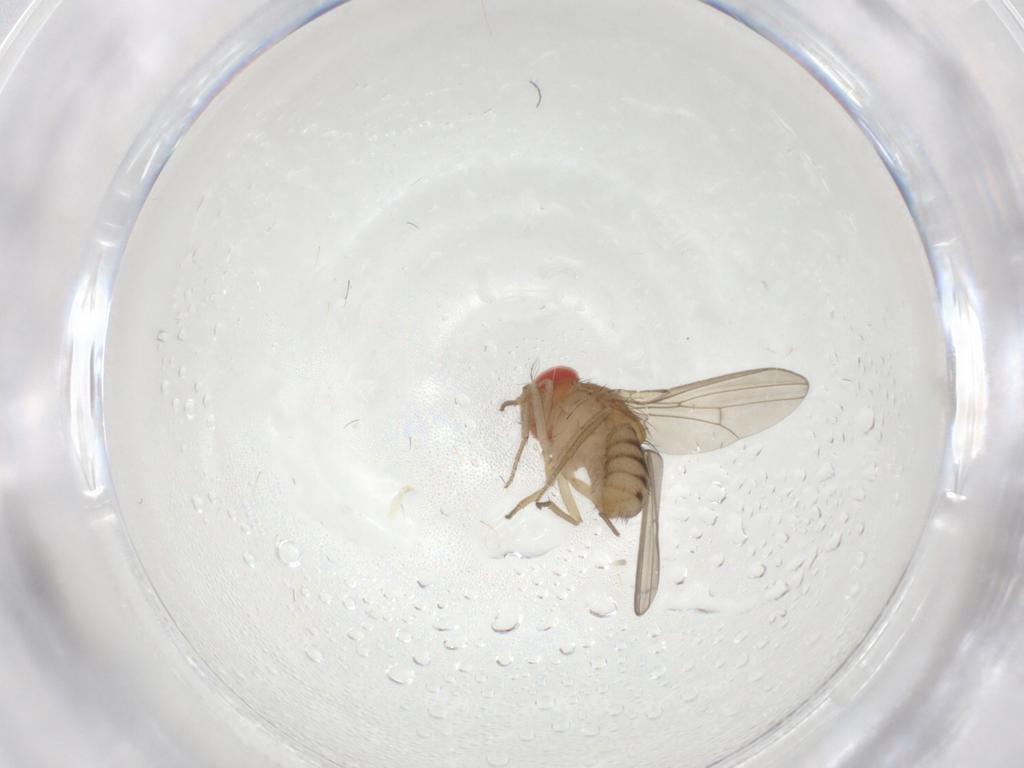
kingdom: Animalia
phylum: Arthropoda
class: Insecta
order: Diptera
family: Drosophilidae
